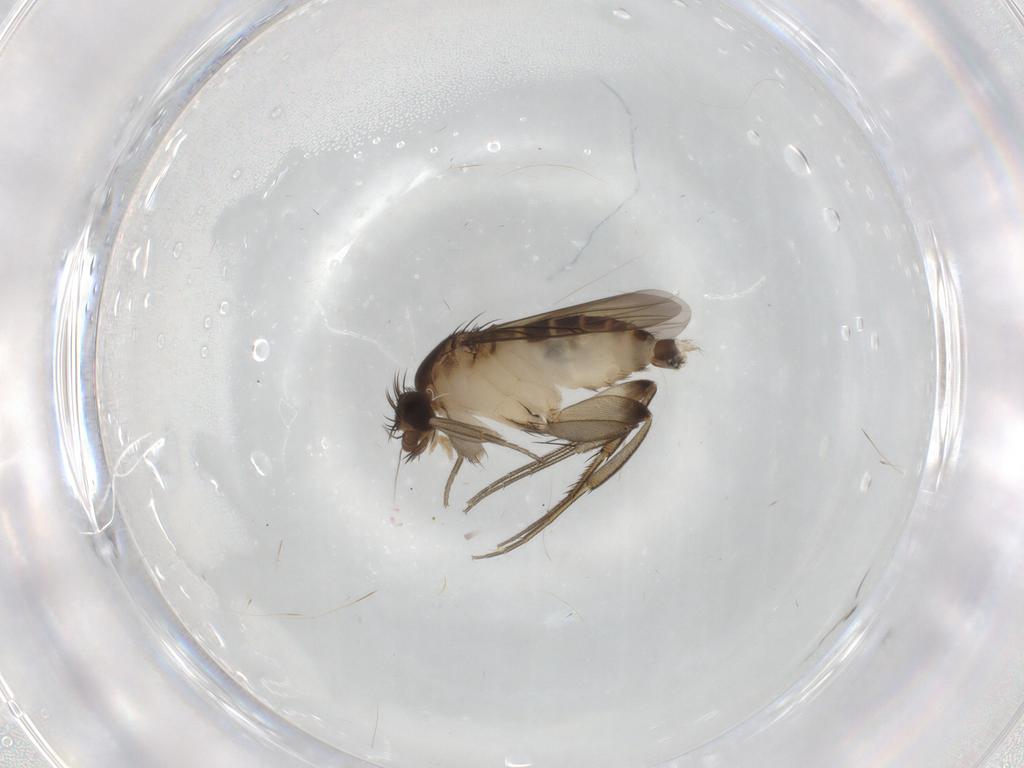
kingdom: Animalia
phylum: Arthropoda
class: Insecta
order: Diptera
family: Phoridae
